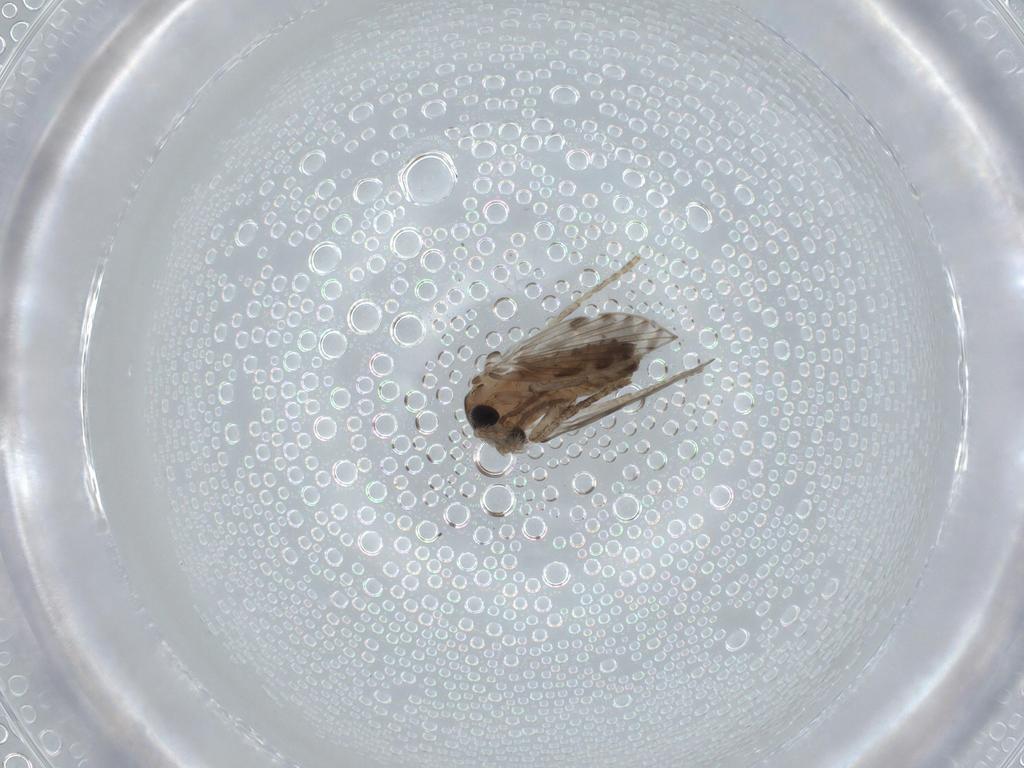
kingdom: Animalia
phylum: Arthropoda
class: Insecta
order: Diptera
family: Psychodidae
